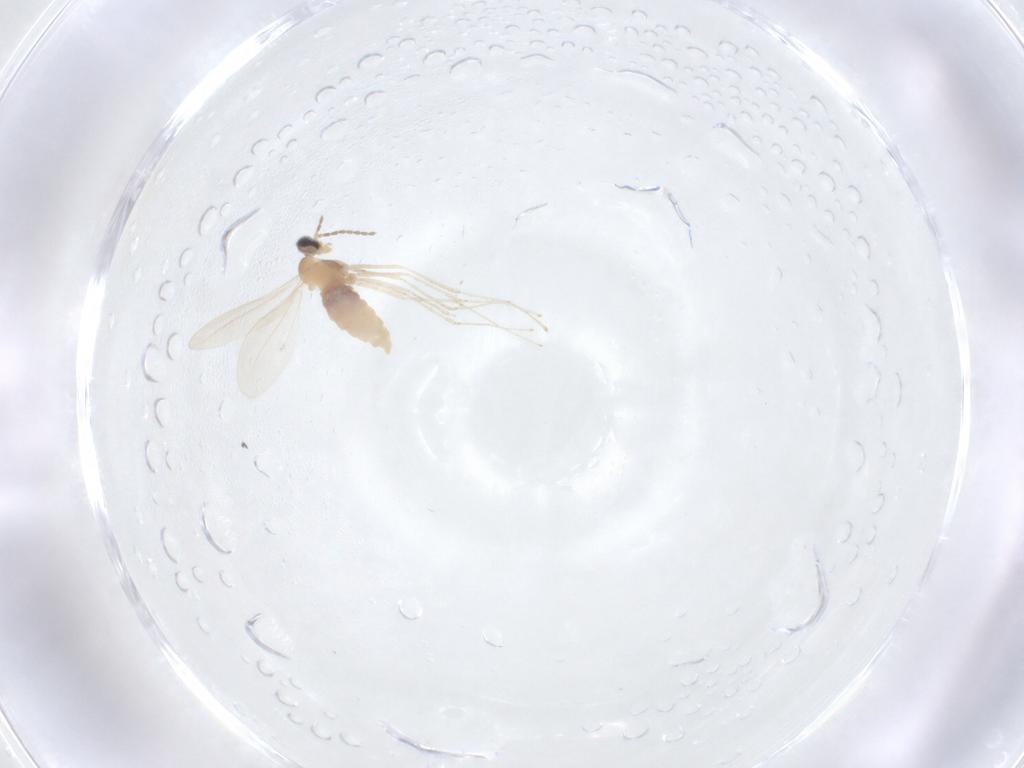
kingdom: Animalia
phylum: Arthropoda
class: Insecta
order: Diptera
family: Cecidomyiidae
